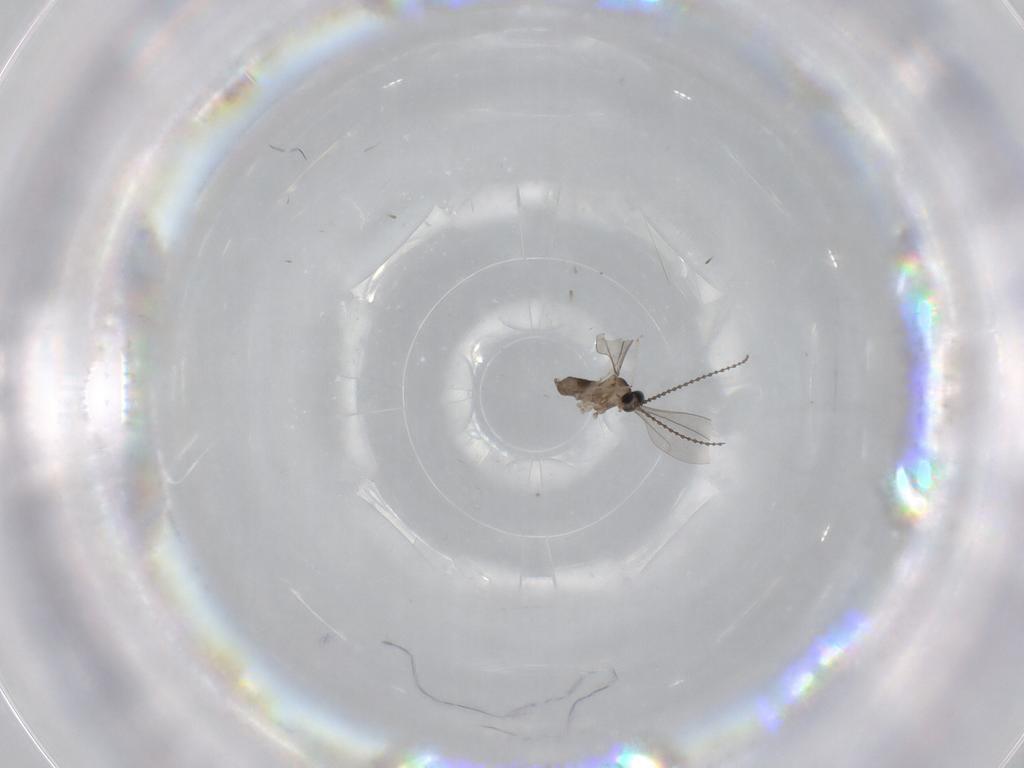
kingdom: Animalia
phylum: Arthropoda
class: Insecta
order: Diptera
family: Cecidomyiidae
